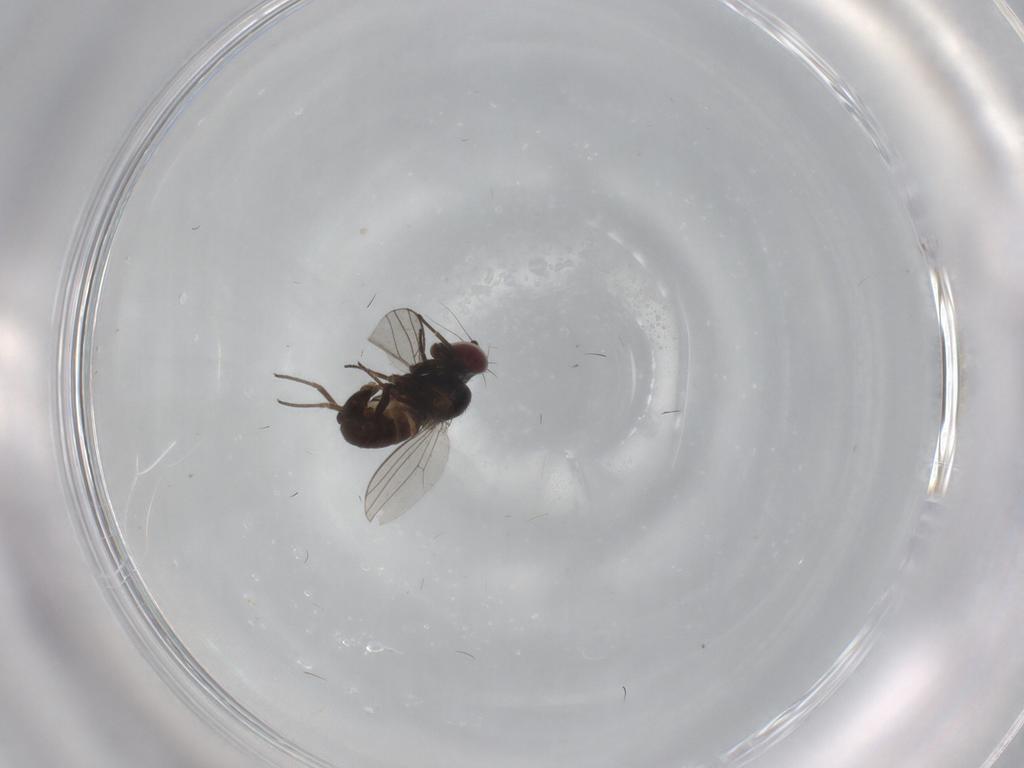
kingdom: Animalia
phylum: Arthropoda
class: Insecta
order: Diptera
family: Dolichopodidae
